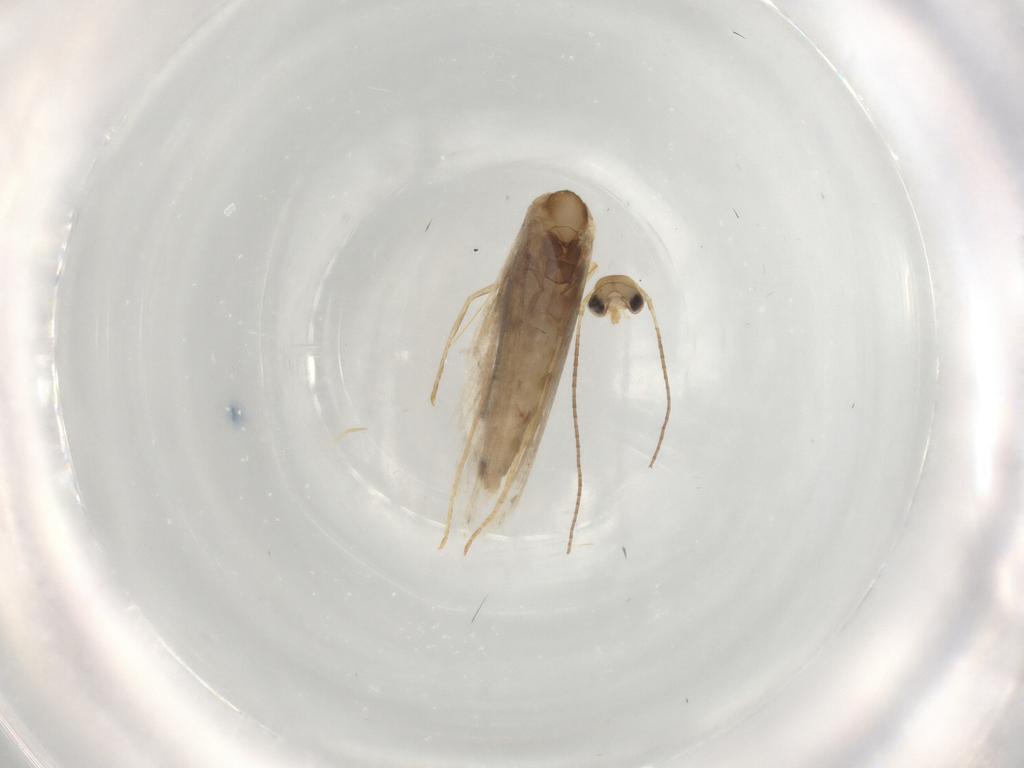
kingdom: Animalia
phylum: Arthropoda
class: Insecta
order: Lepidoptera
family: Gracillariidae
